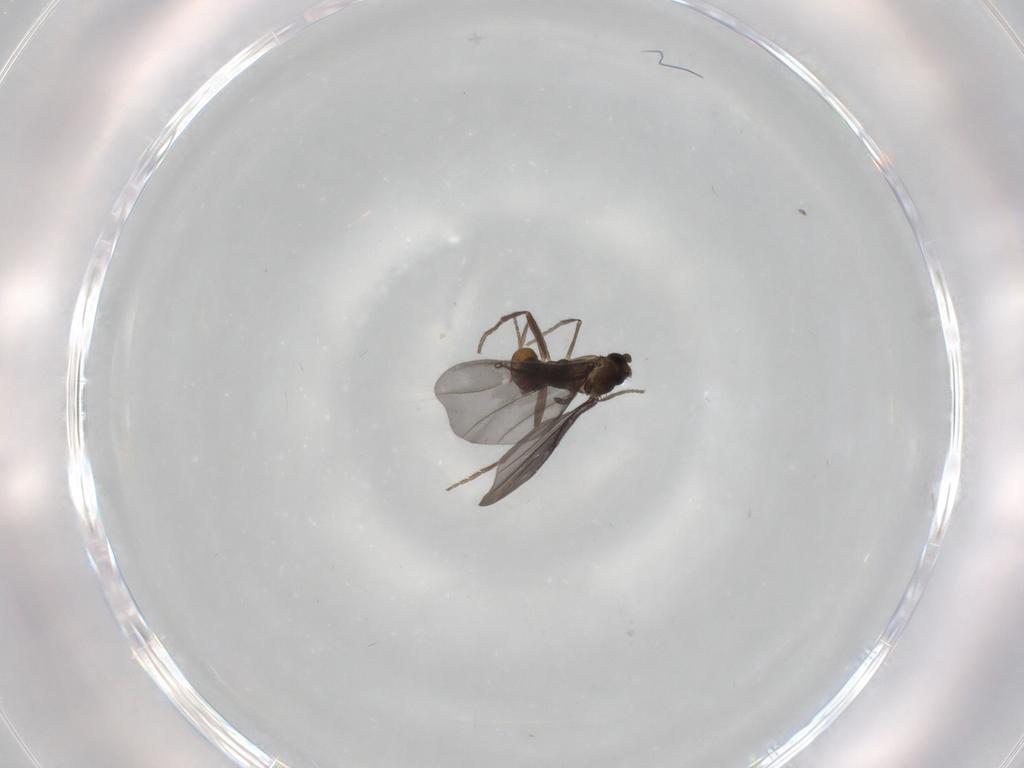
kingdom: Animalia
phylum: Arthropoda
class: Insecta
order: Diptera
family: Phoridae
